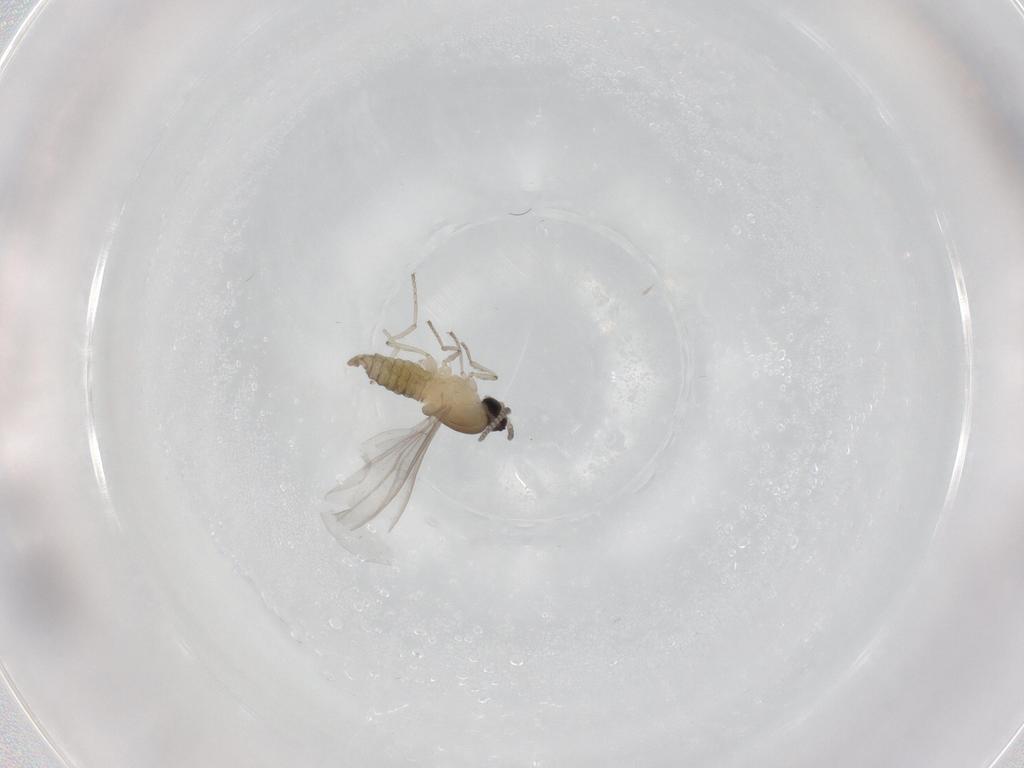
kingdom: Animalia
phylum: Arthropoda
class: Insecta
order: Diptera
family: Cecidomyiidae
